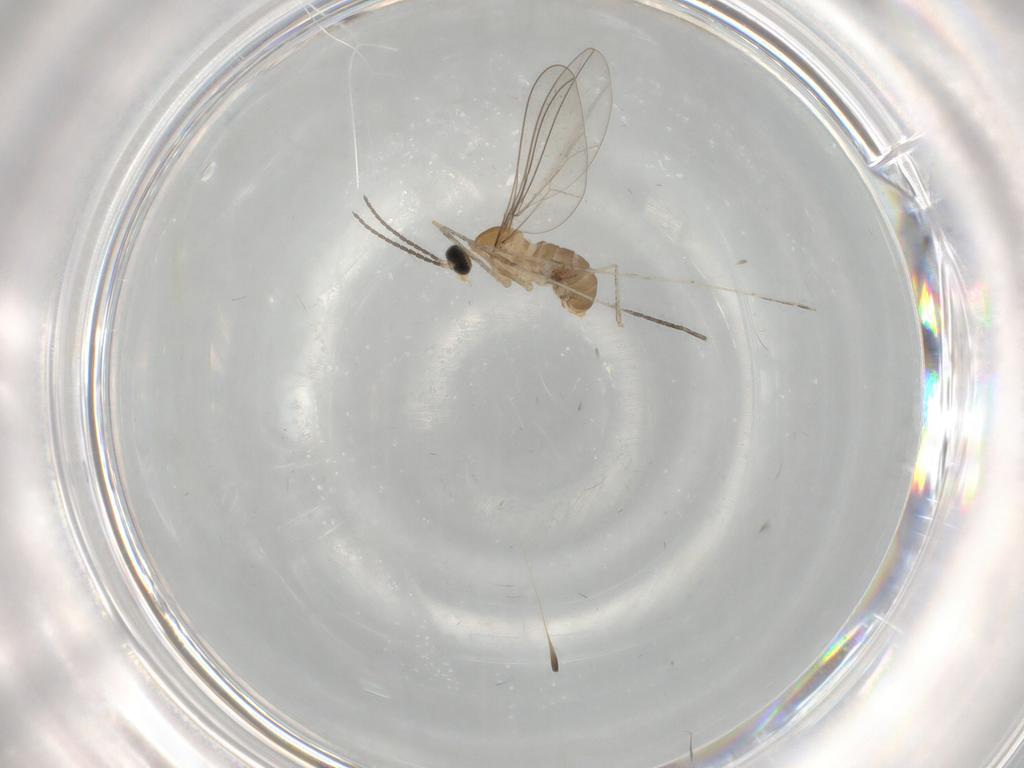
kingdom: Animalia
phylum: Arthropoda
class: Insecta
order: Diptera
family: Cecidomyiidae
